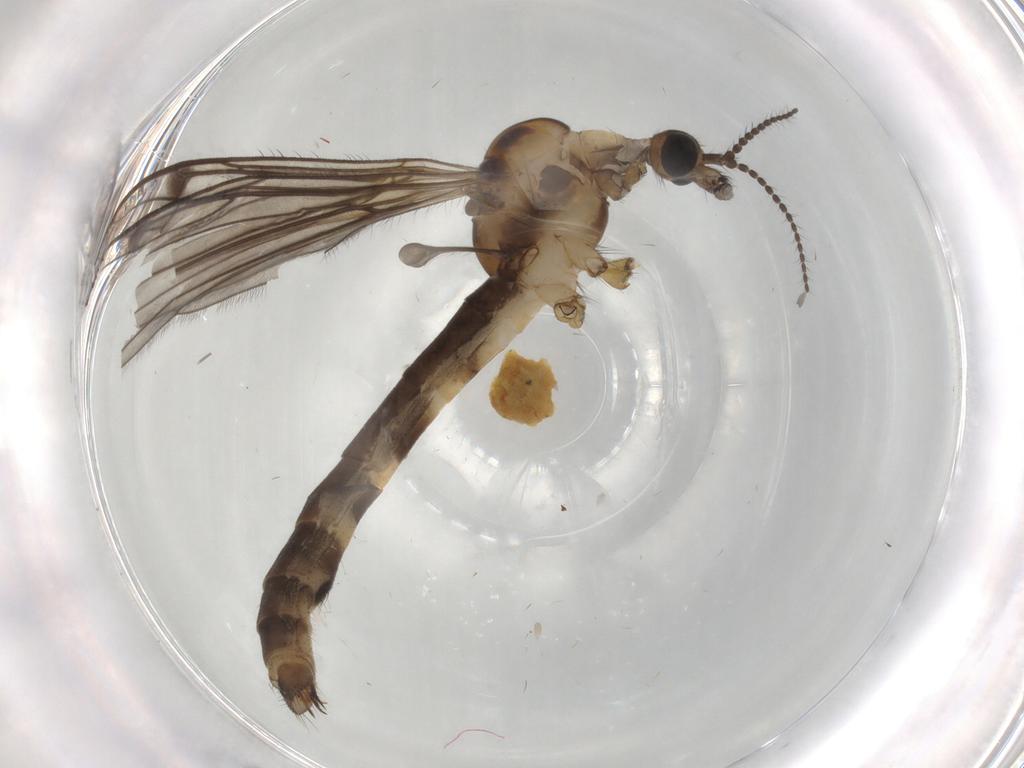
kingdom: Animalia
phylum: Arthropoda
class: Insecta
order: Diptera
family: Cecidomyiidae
